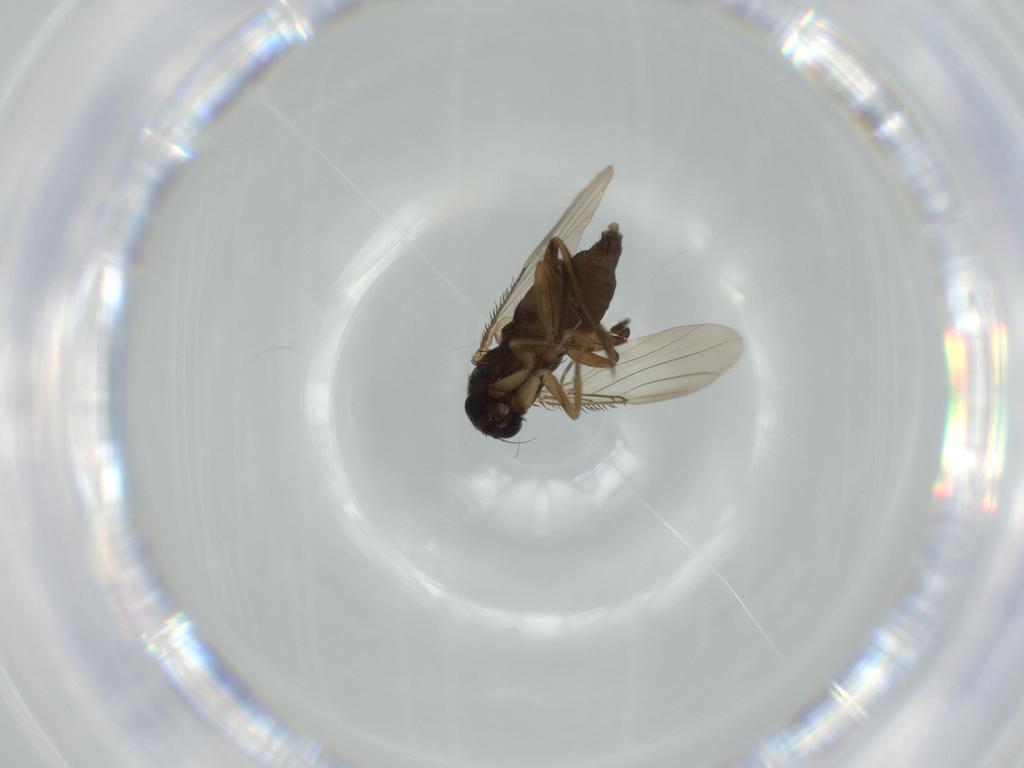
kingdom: Animalia
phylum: Arthropoda
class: Insecta
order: Diptera
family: Phoridae
